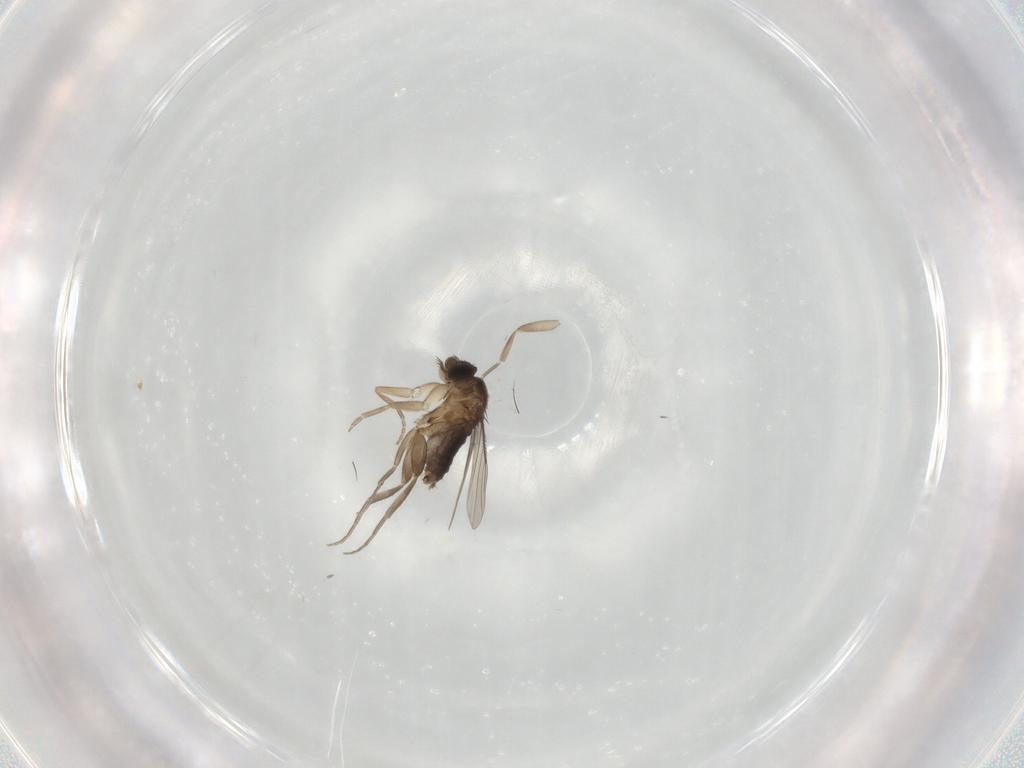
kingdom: Animalia
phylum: Arthropoda
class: Insecta
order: Diptera
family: Phoridae
